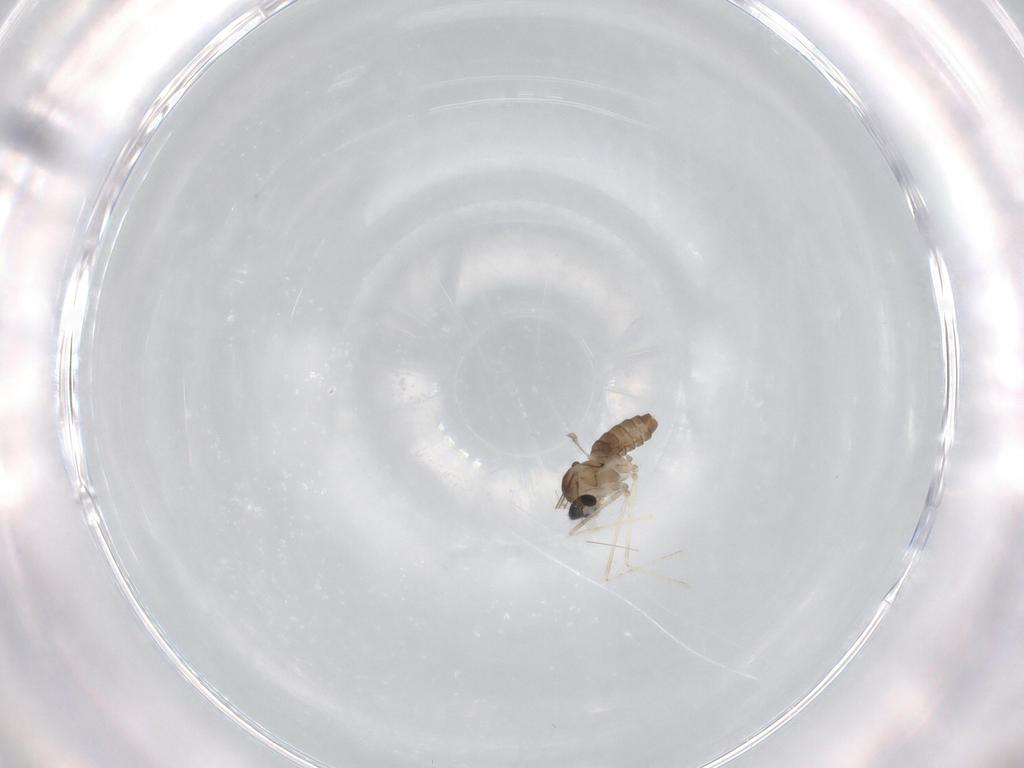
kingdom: Animalia
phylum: Arthropoda
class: Insecta
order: Diptera
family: Cecidomyiidae
